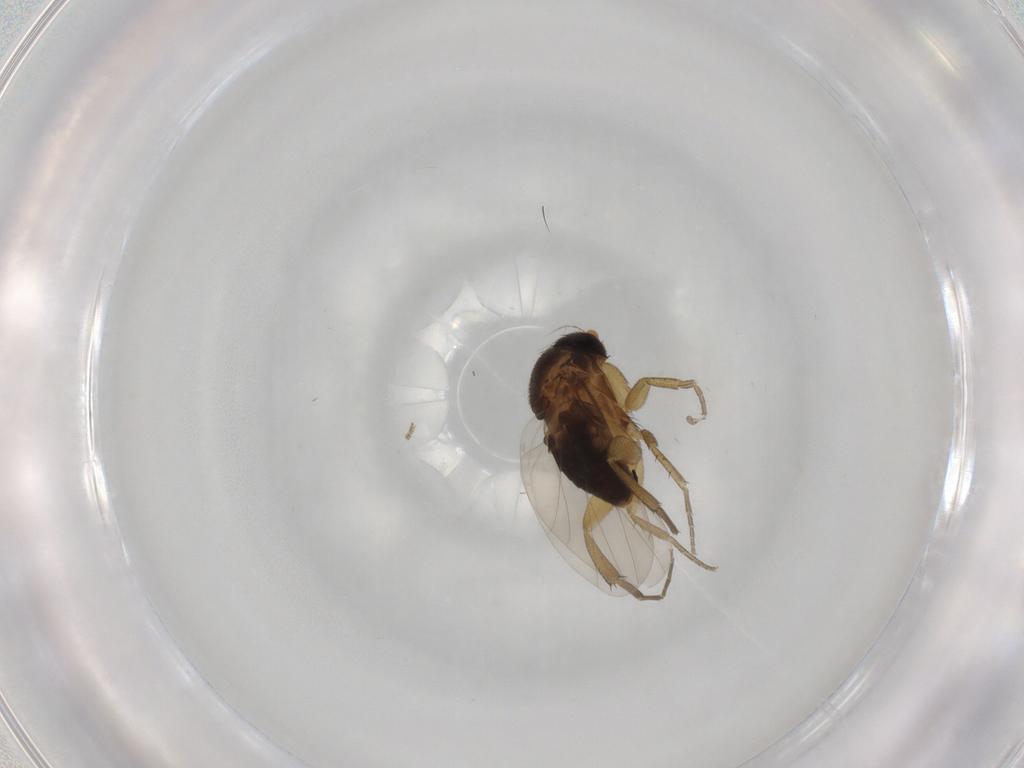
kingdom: Animalia
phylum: Arthropoda
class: Insecta
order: Diptera
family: Phoridae
